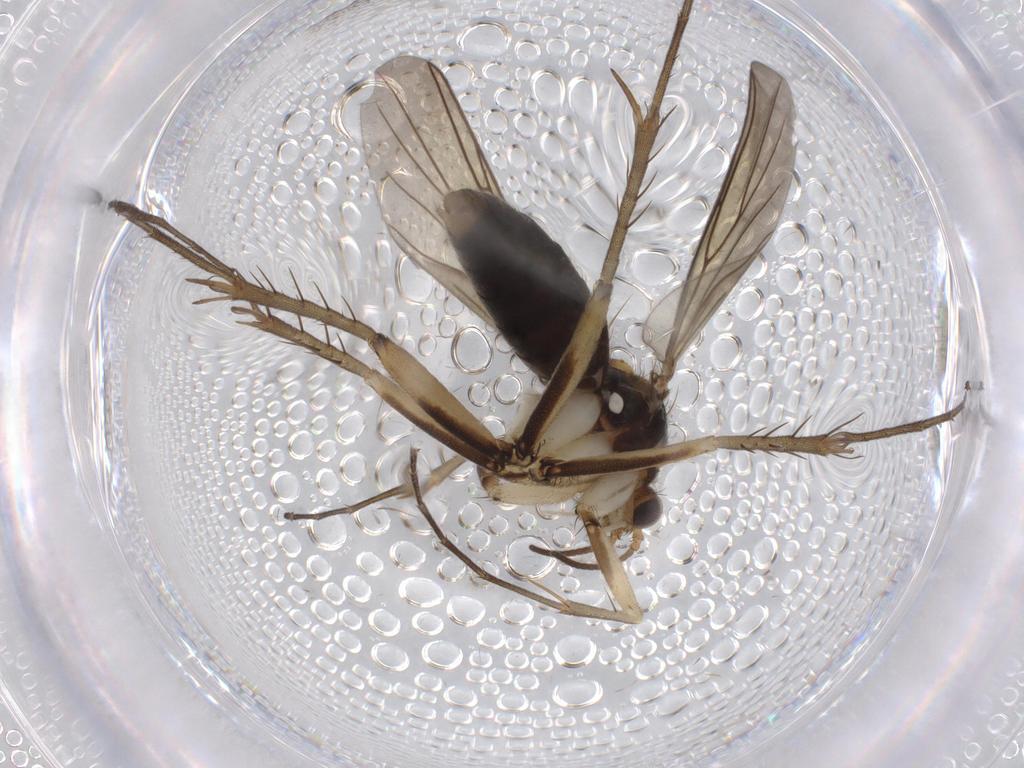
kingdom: Animalia
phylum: Arthropoda
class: Insecta
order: Diptera
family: Mycetophilidae
